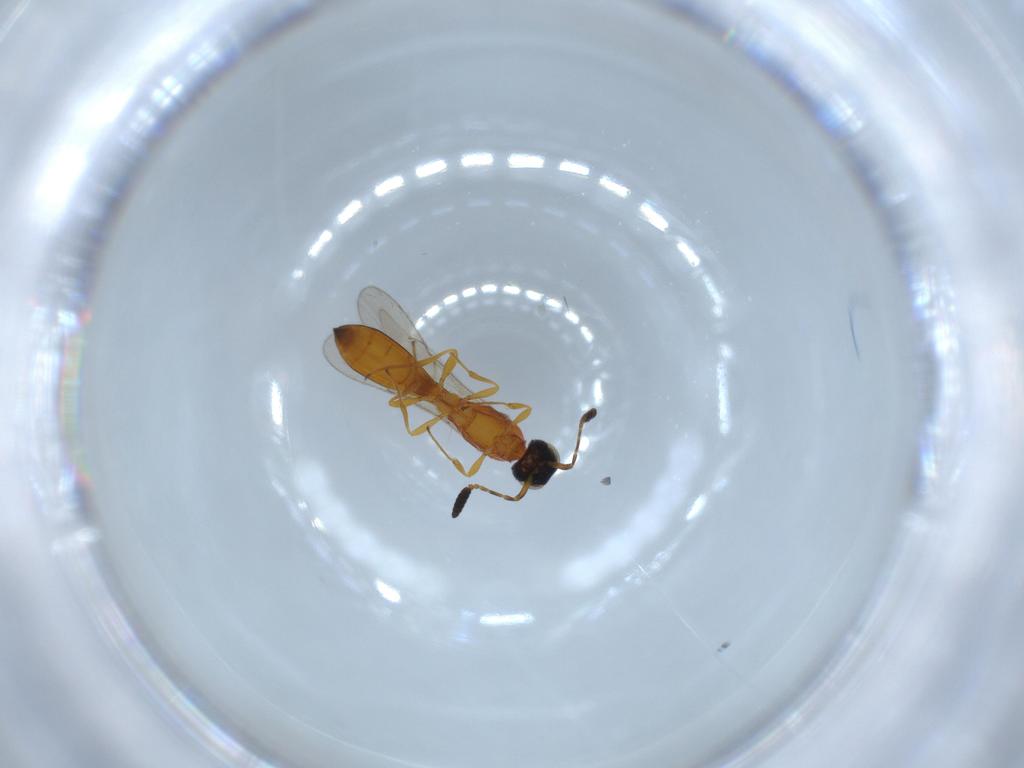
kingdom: Animalia
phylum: Arthropoda
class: Insecta
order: Hymenoptera
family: Scelionidae
